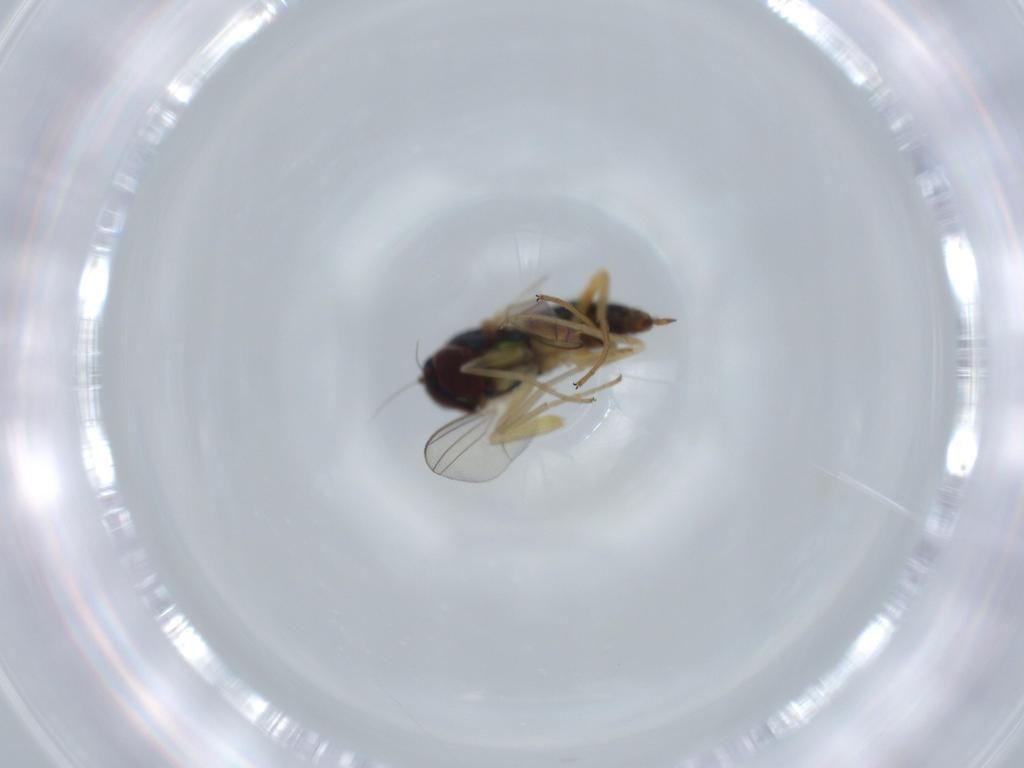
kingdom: Animalia
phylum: Arthropoda
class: Insecta
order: Diptera
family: Dolichopodidae
